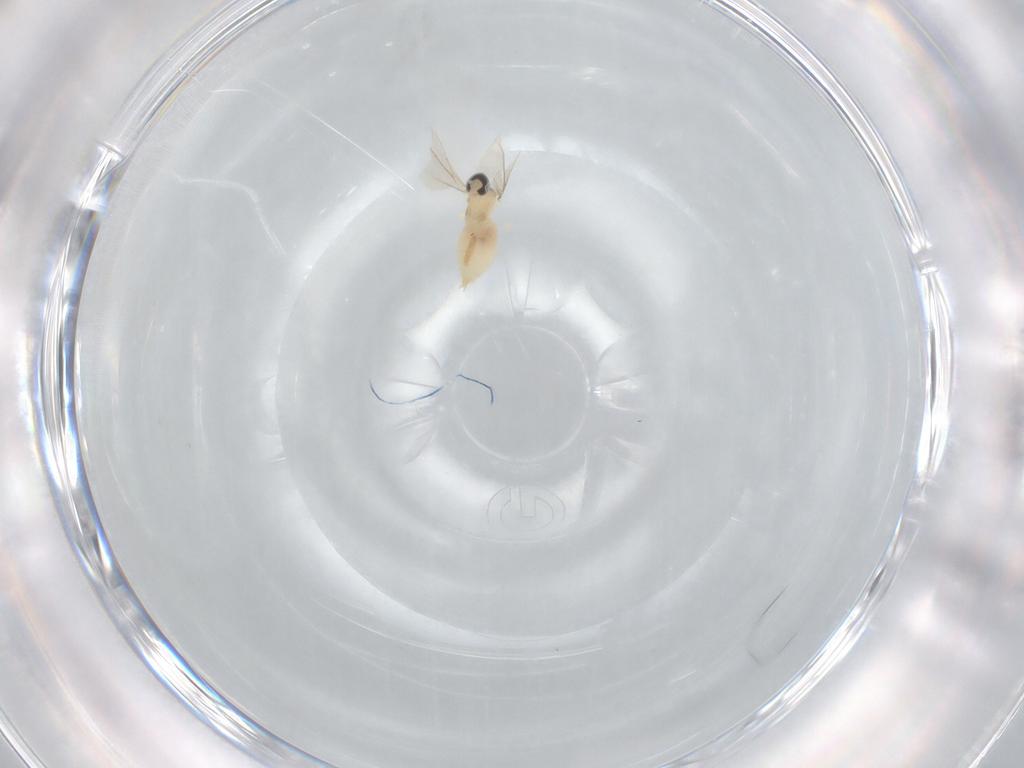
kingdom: Animalia
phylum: Arthropoda
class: Insecta
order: Diptera
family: Cecidomyiidae
